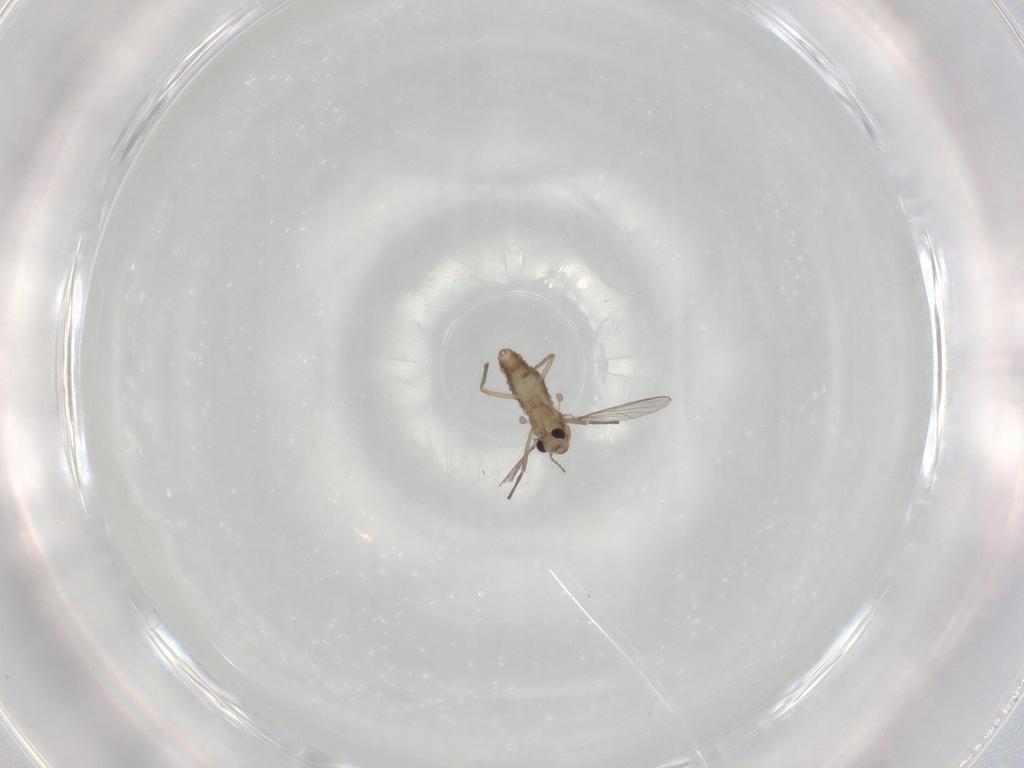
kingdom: Animalia
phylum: Arthropoda
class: Insecta
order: Diptera
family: Chironomidae
